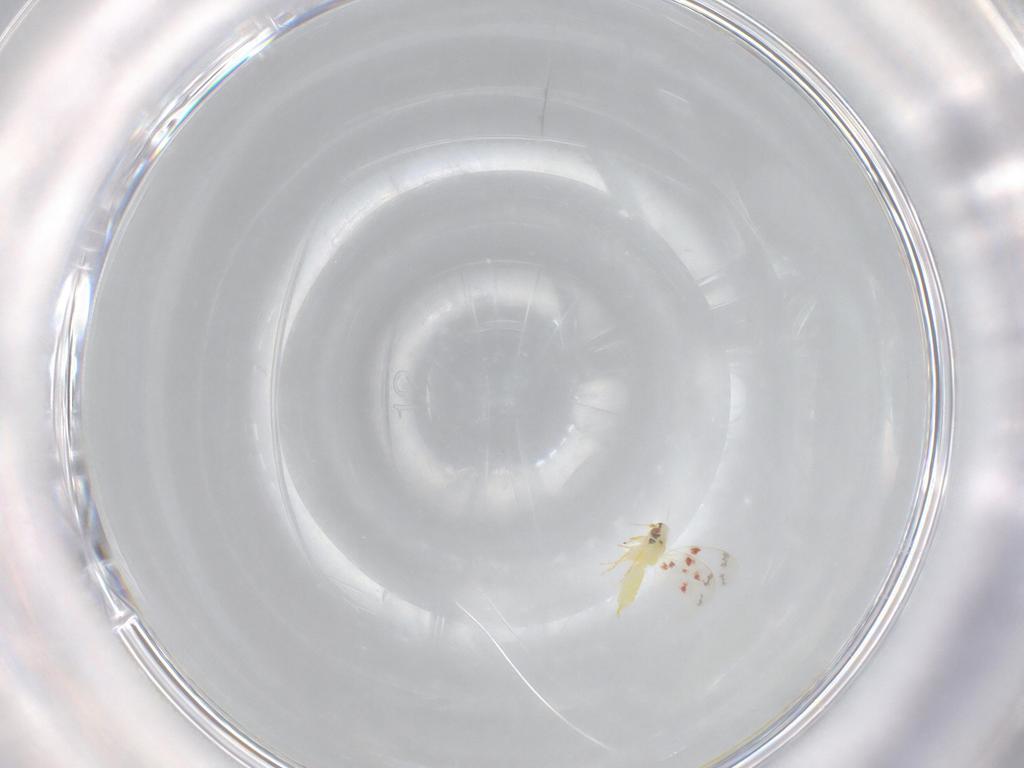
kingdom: Animalia
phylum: Arthropoda
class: Insecta
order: Hemiptera
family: Aleyrodidae
